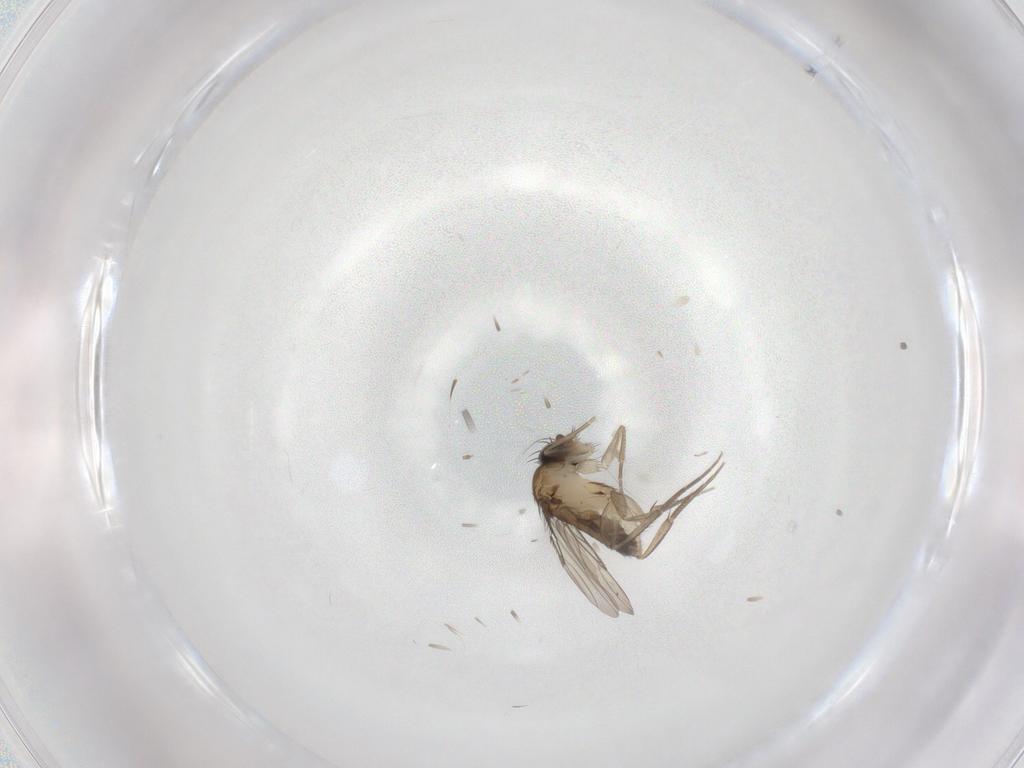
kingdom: Animalia
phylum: Arthropoda
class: Insecta
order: Diptera
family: Phoridae
